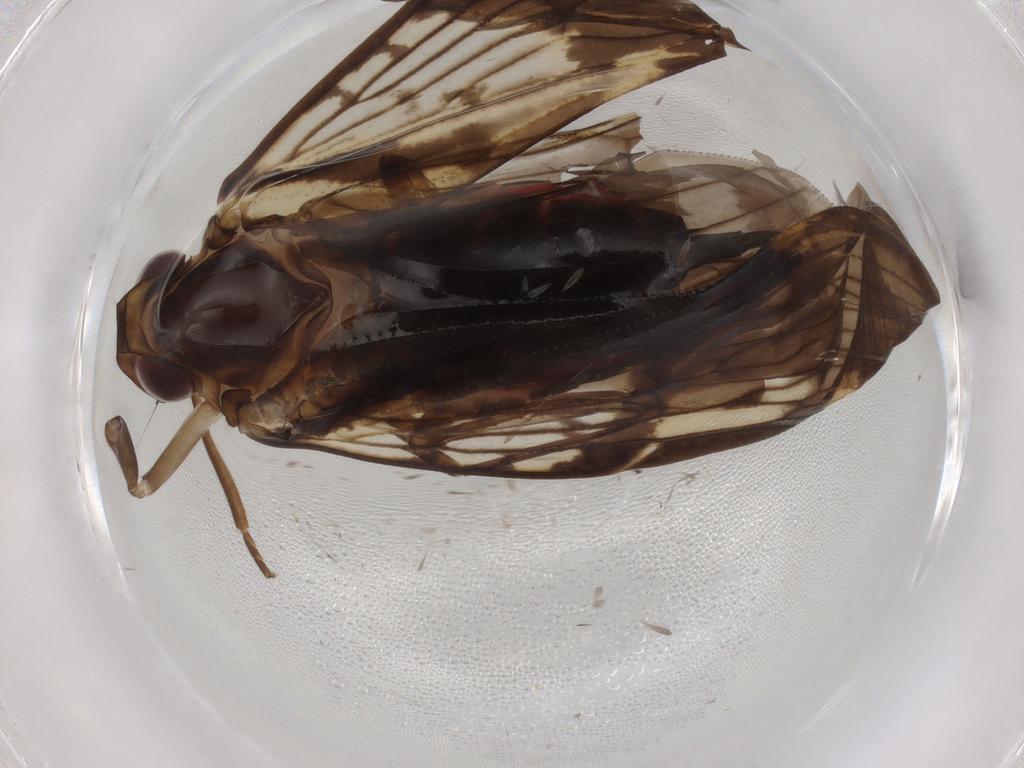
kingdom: Animalia
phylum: Arthropoda
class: Insecta
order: Hemiptera
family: Cixiidae
